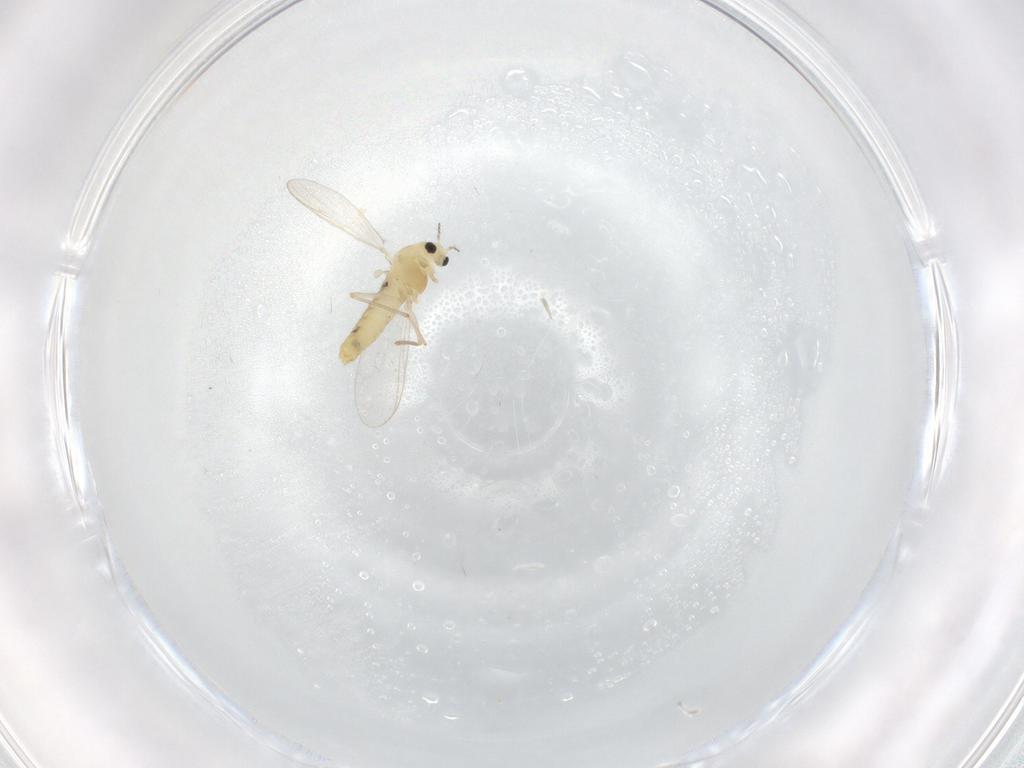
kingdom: Animalia
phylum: Arthropoda
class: Insecta
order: Diptera
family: Chironomidae
